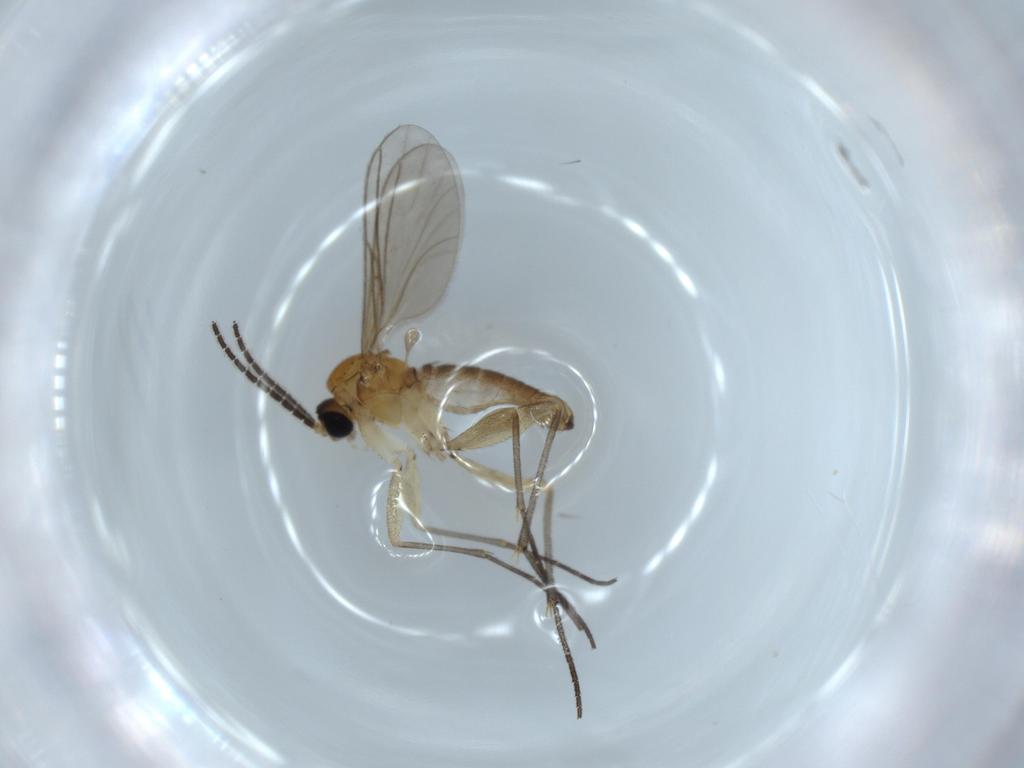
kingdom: Animalia
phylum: Arthropoda
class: Insecta
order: Diptera
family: Sciaridae
